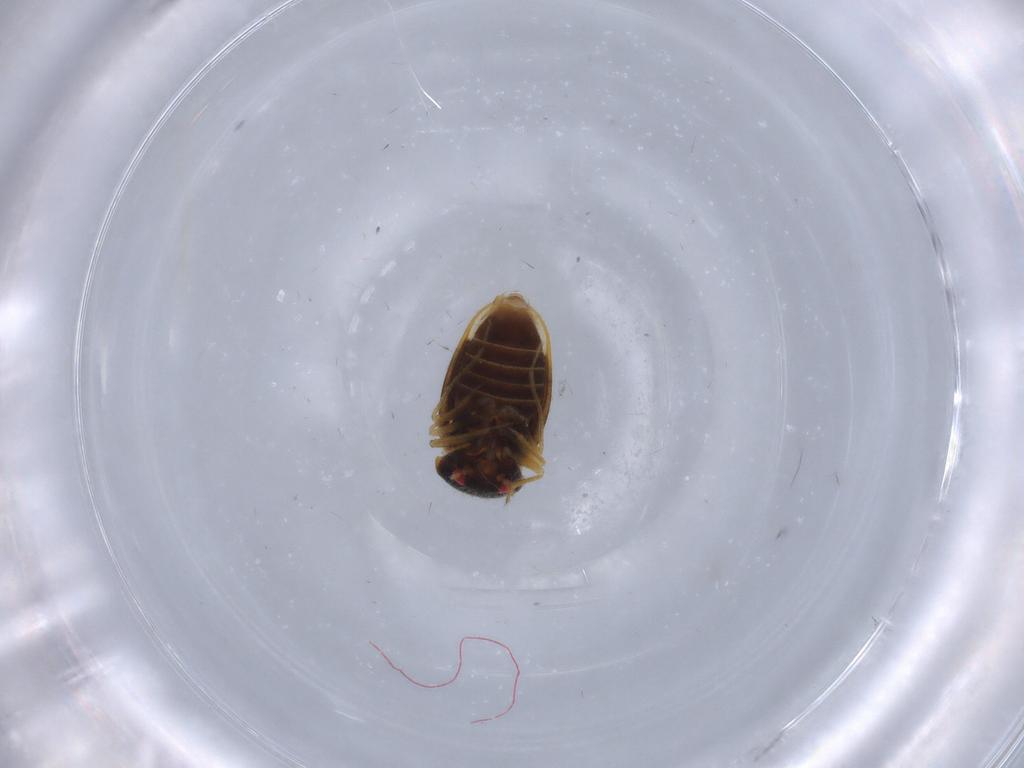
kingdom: Animalia
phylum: Arthropoda
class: Insecta
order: Hemiptera
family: Schizopteridae
